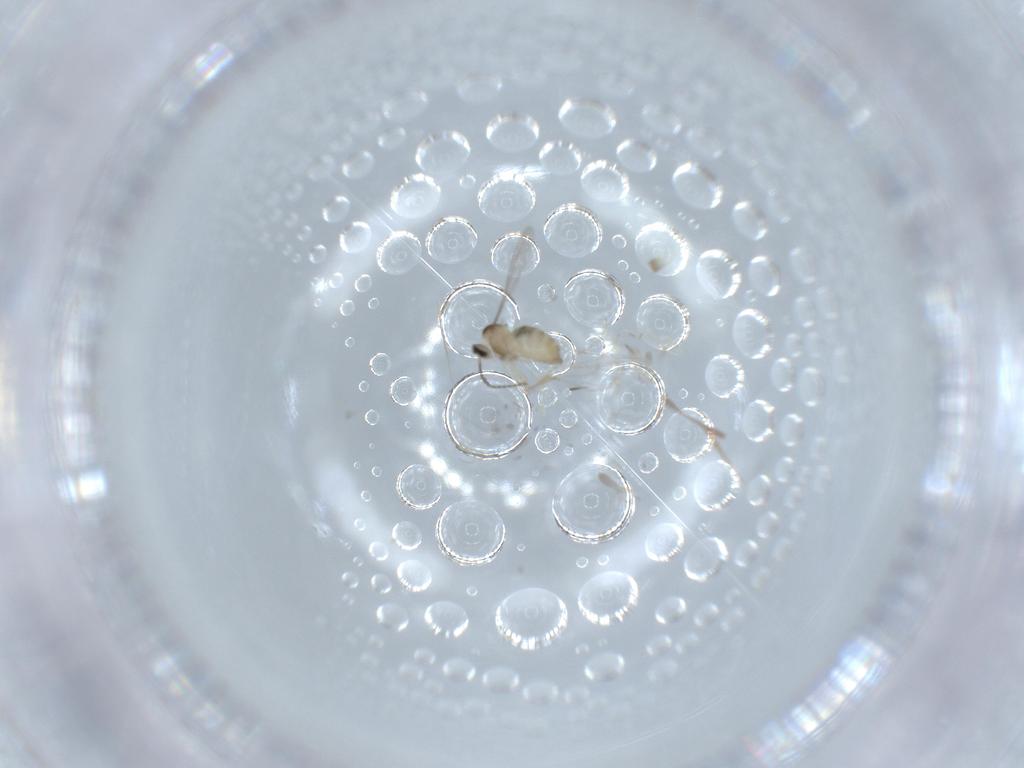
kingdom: Animalia
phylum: Arthropoda
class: Insecta
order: Diptera
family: Cecidomyiidae
